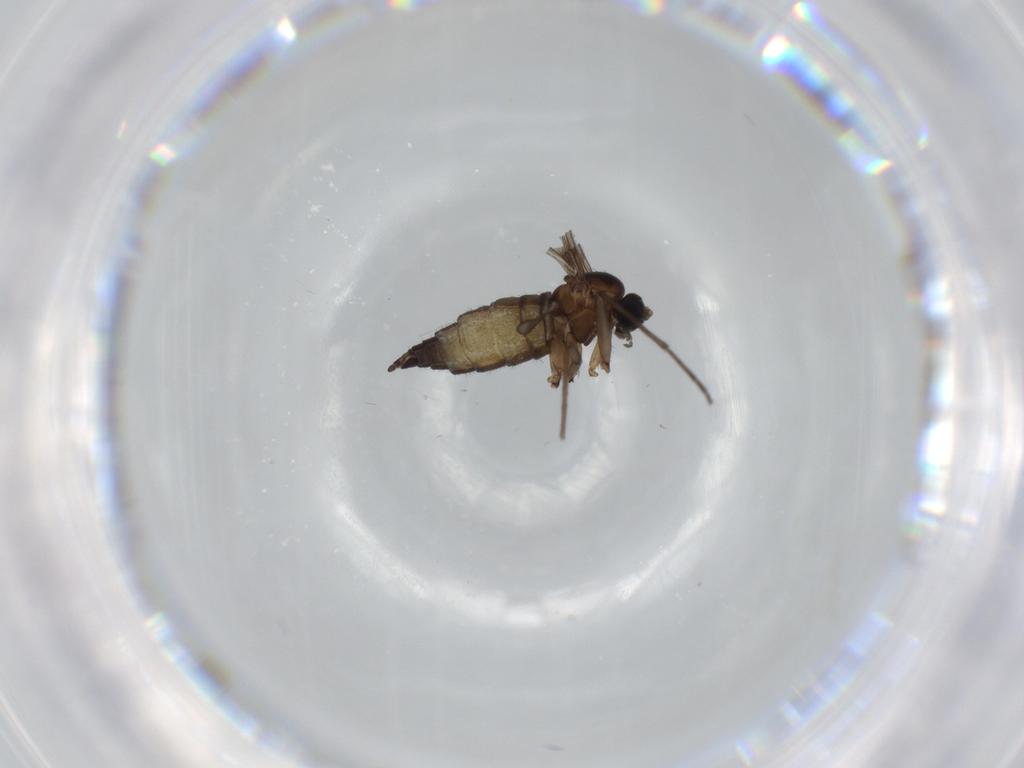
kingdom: Animalia
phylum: Arthropoda
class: Insecta
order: Diptera
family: Sciaridae
